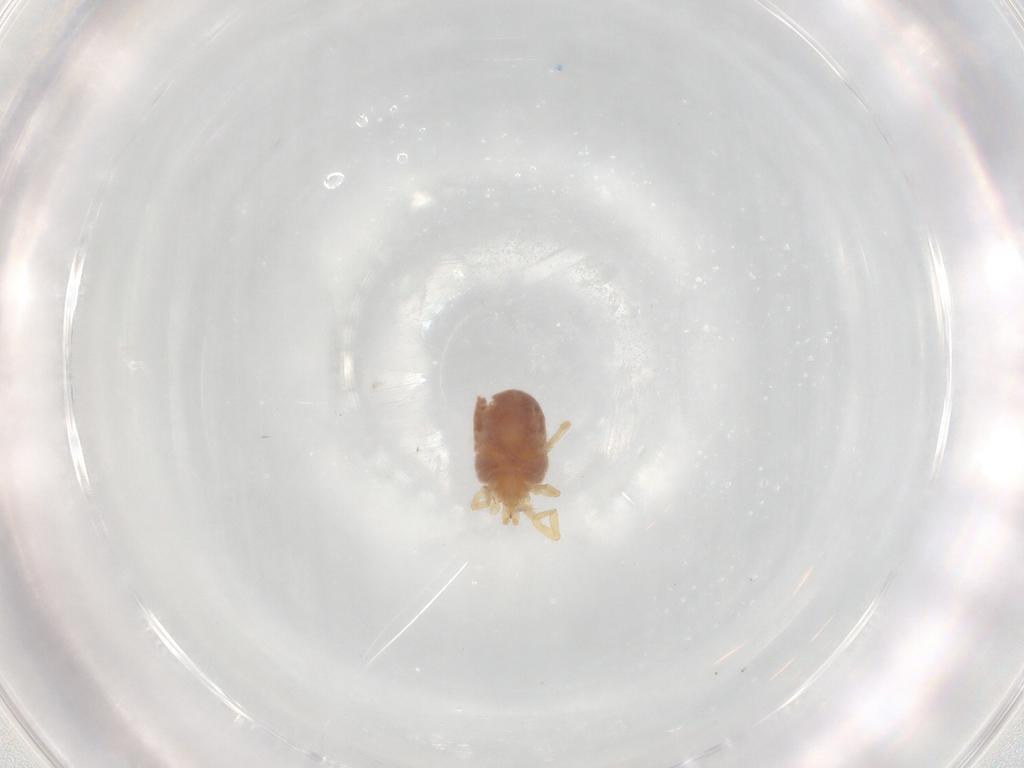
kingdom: Animalia
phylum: Arthropoda
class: Arachnida
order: Trombidiformes
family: Erythraeidae
